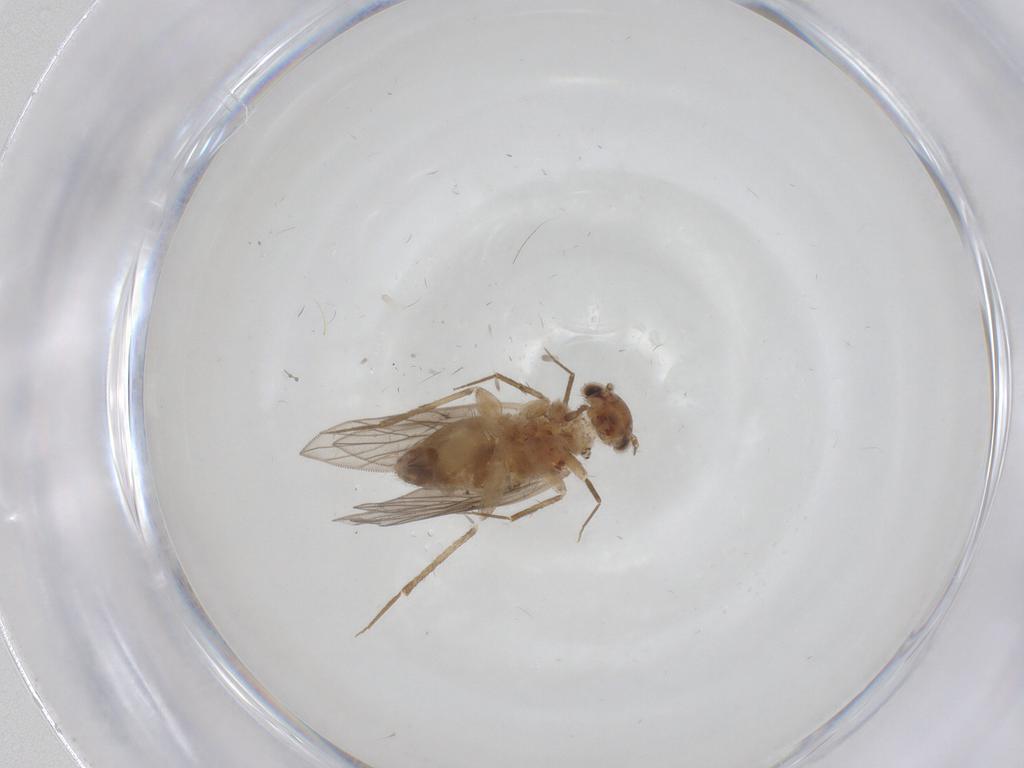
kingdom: Animalia
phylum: Arthropoda
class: Insecta
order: Psocodea
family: Lepidopsocidae
